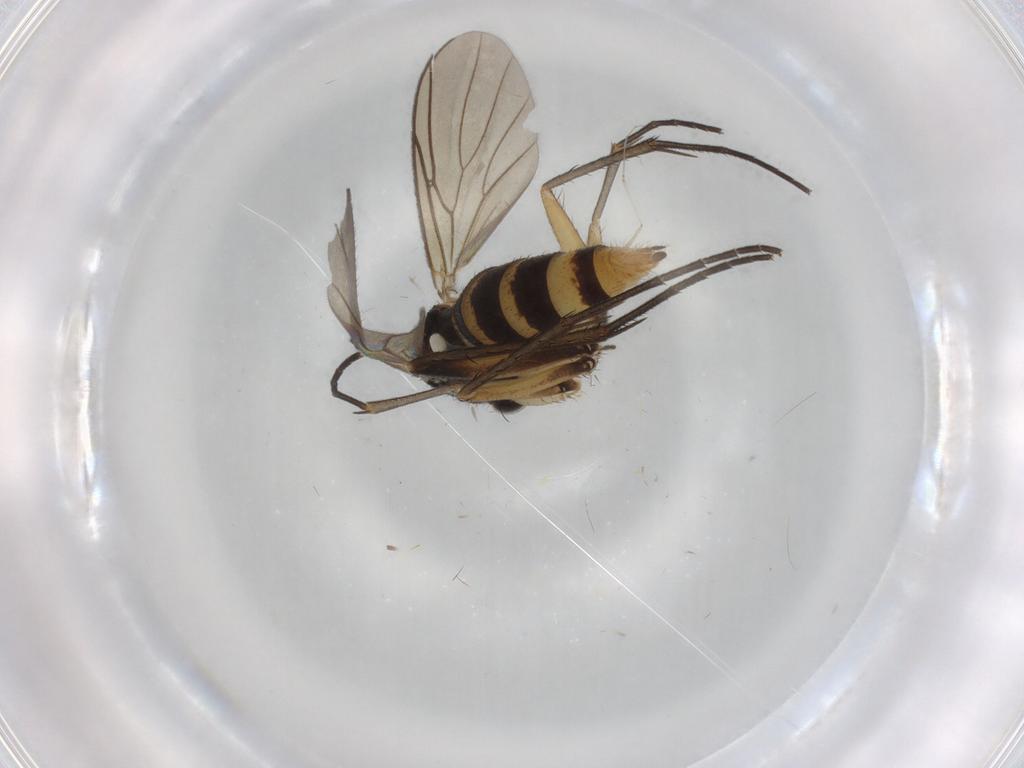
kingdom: Animalia
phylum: Arthropoda
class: Insecta
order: Diptera
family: Mycetophilidae
